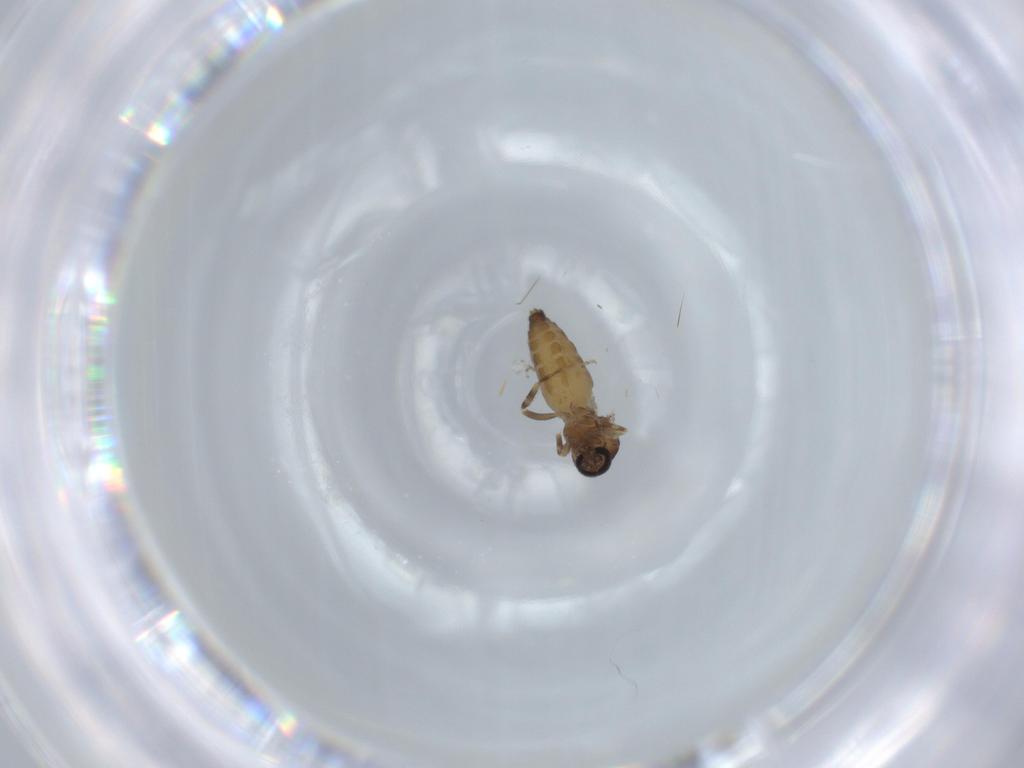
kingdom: Animalia
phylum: Arthropoda
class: Insecta
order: Diptera
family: Ceratopogonidae
